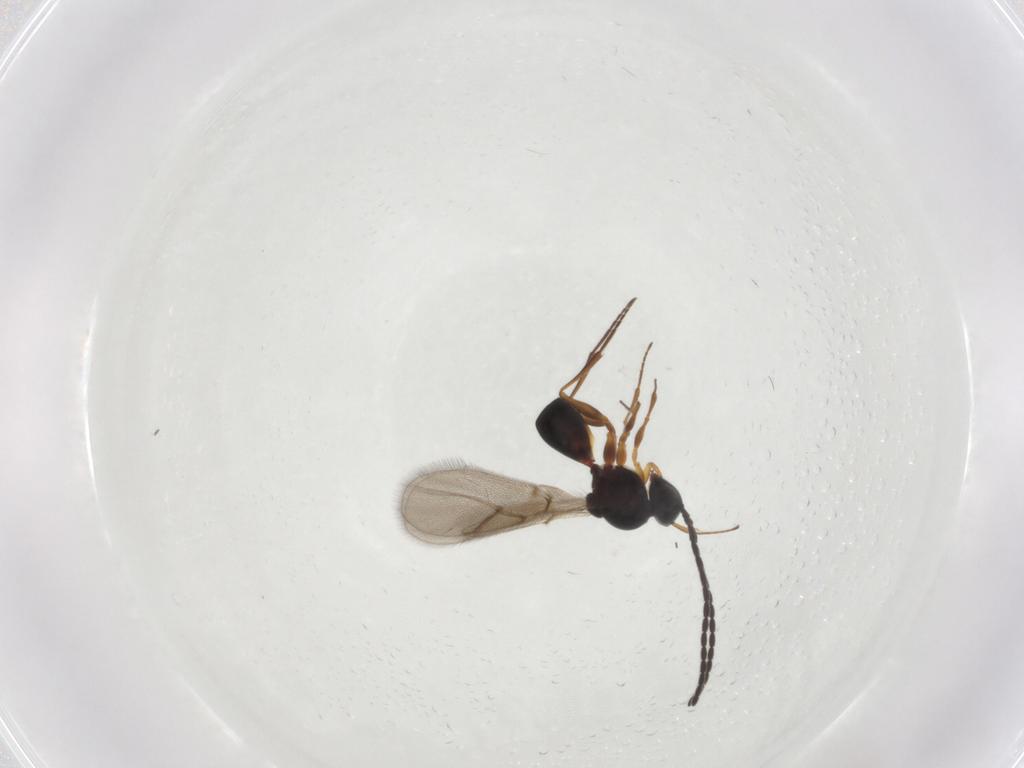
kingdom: Animalia
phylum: Arthropoda
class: Insecta
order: Hymenoptera
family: Figitidae
